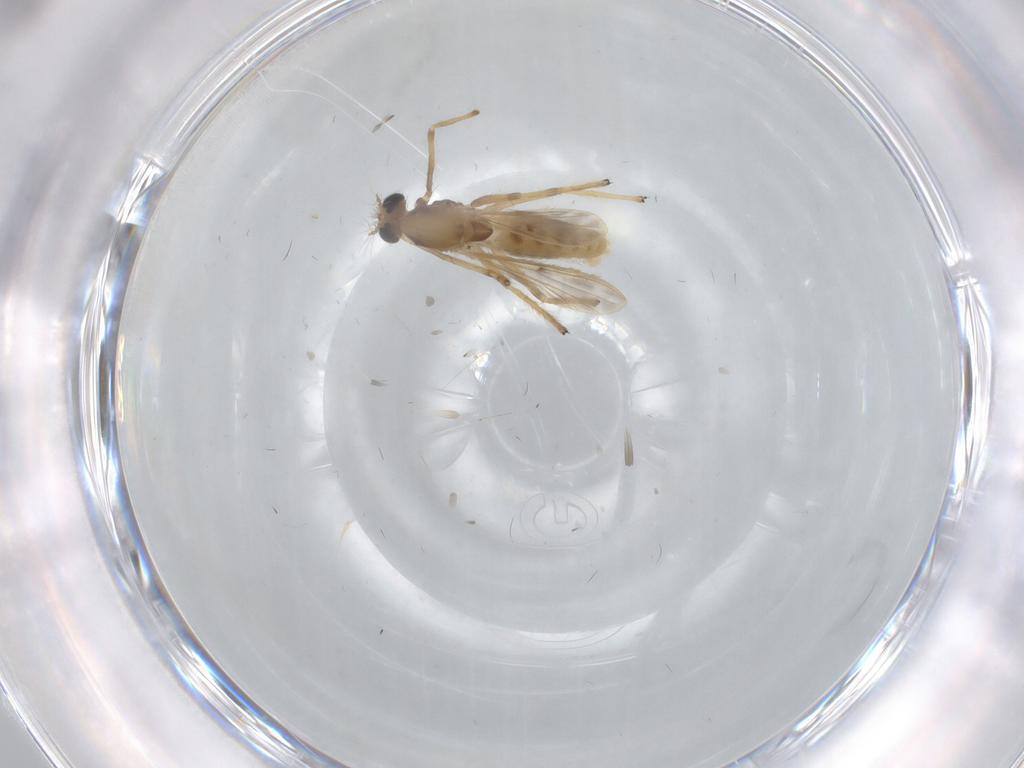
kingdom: Animalia
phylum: Arthropoda
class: Insecta
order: Diptera
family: Chironomidae
